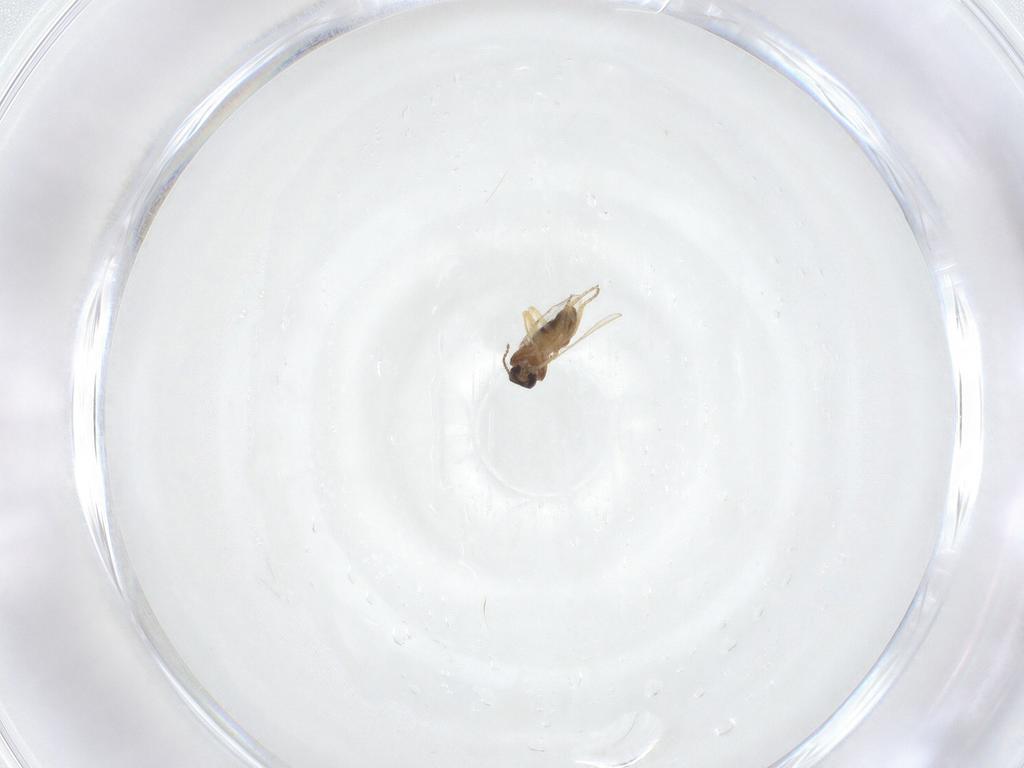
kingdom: Animalia
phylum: Arthropoda
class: Insecta
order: Diptera
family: Ceratopogonidae
